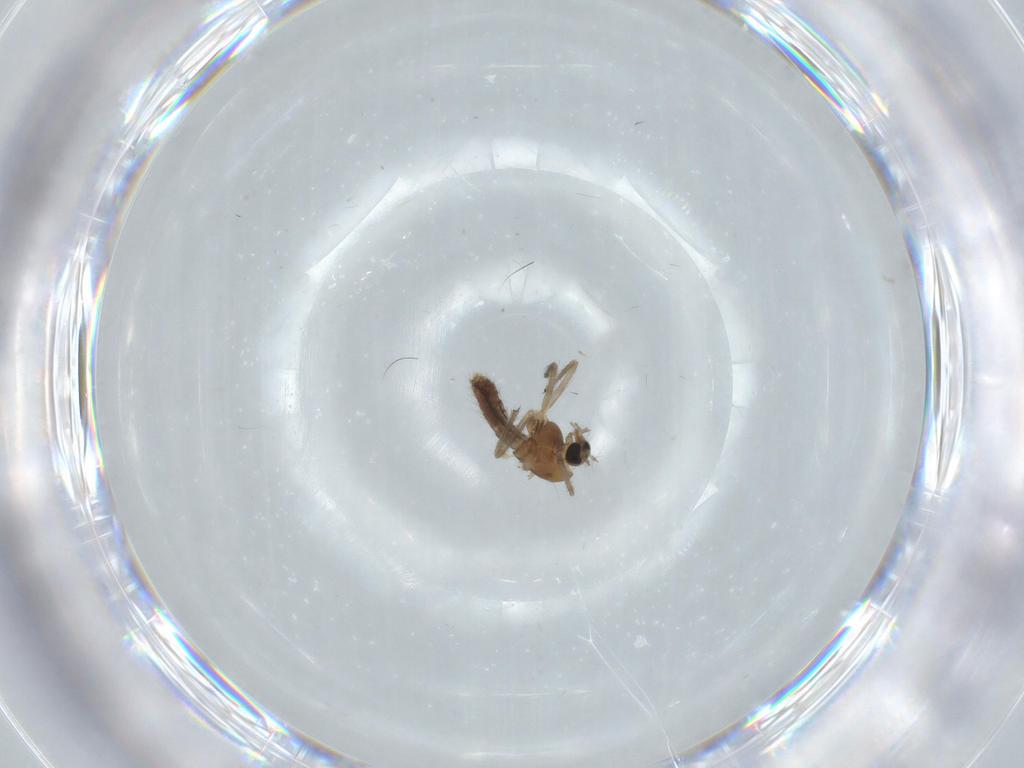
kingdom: Animalia
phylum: Arthropoda
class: Insecta
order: Diptera
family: Chironomidae
